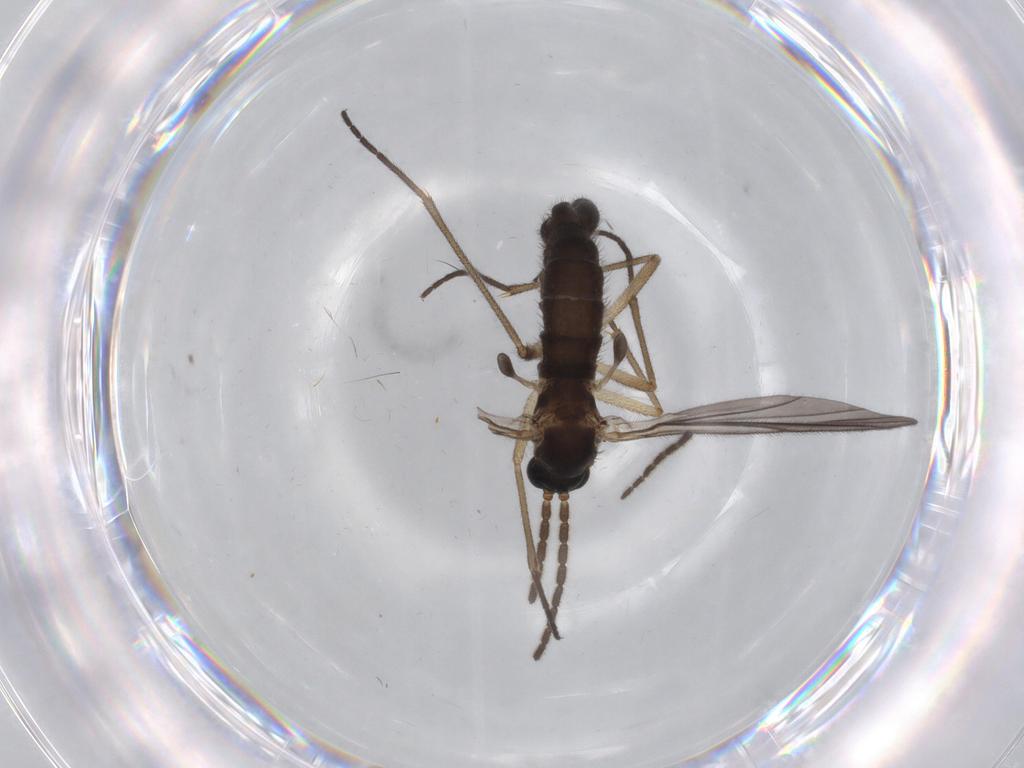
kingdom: Animalia
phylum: Arthropoda
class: Insecta
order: Diptera
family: Sciaridae
